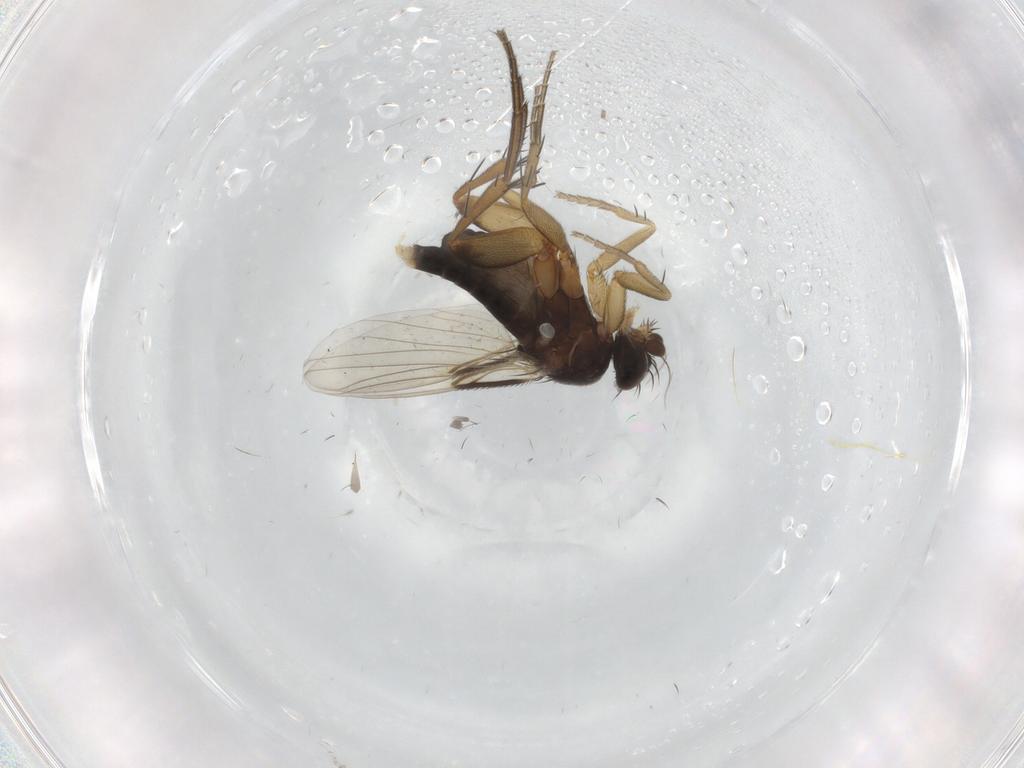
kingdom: Animalia
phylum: Arthropoda
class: Insecta
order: Diptera
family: Phoridae
